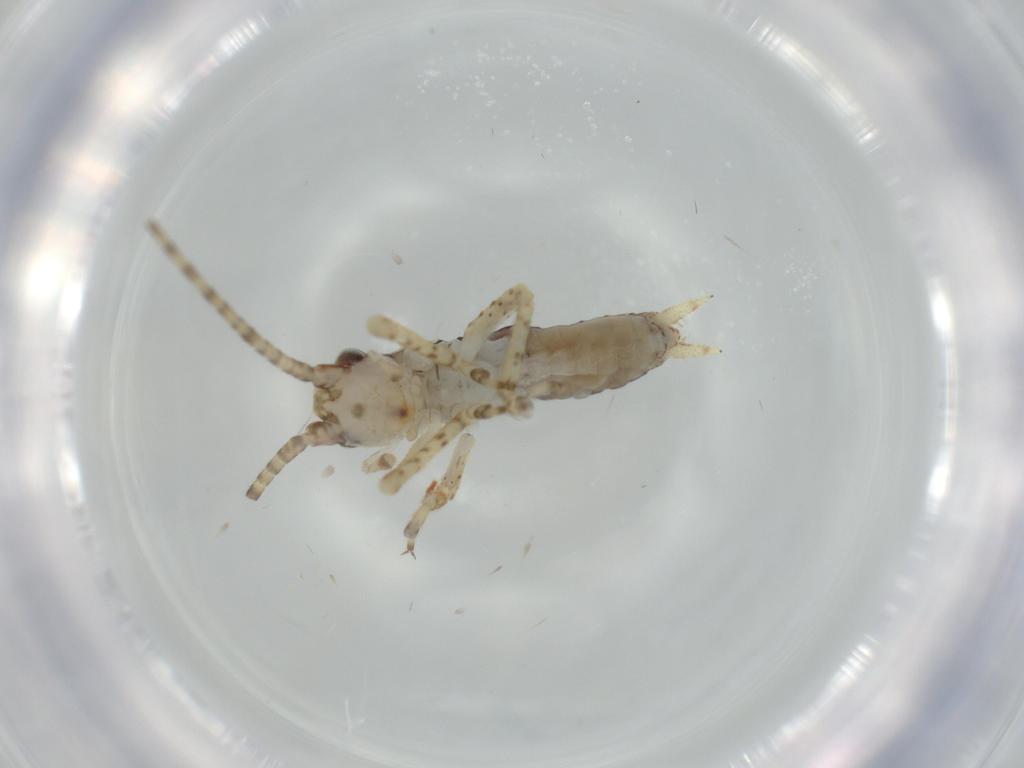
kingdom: Animalia
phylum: Arthropoda
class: Insecta
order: Orthoptera
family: Gryllidae
